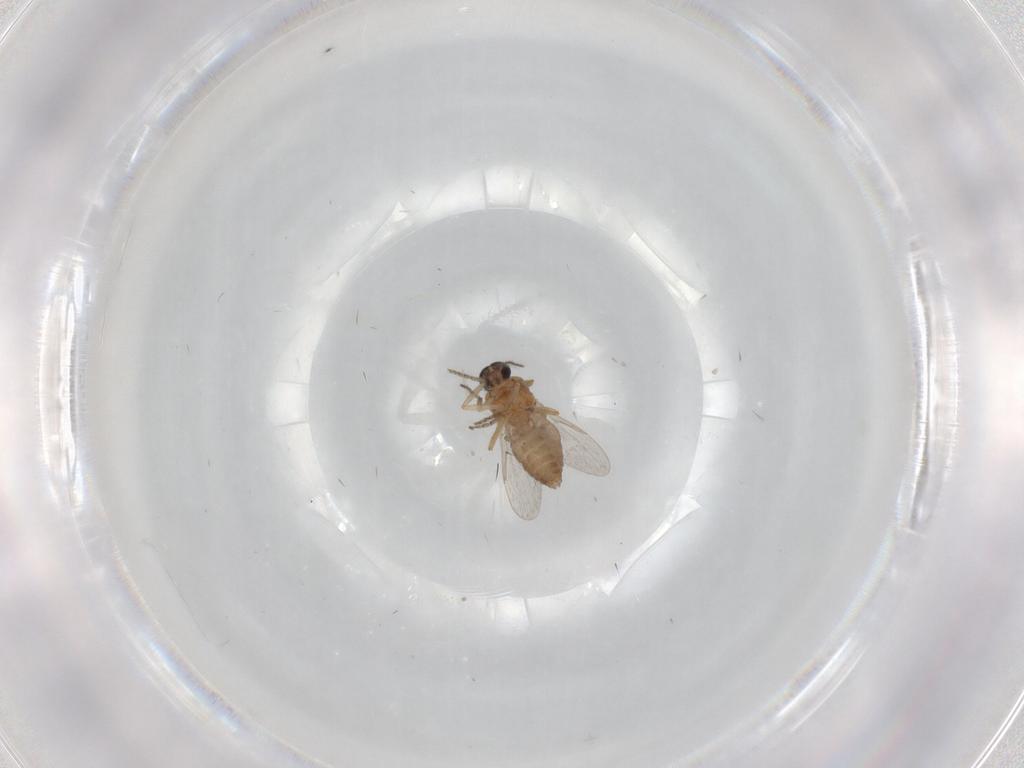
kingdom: Animalia
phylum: Arthropoda
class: Insecta
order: Diptera
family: Ceratopogonidae
